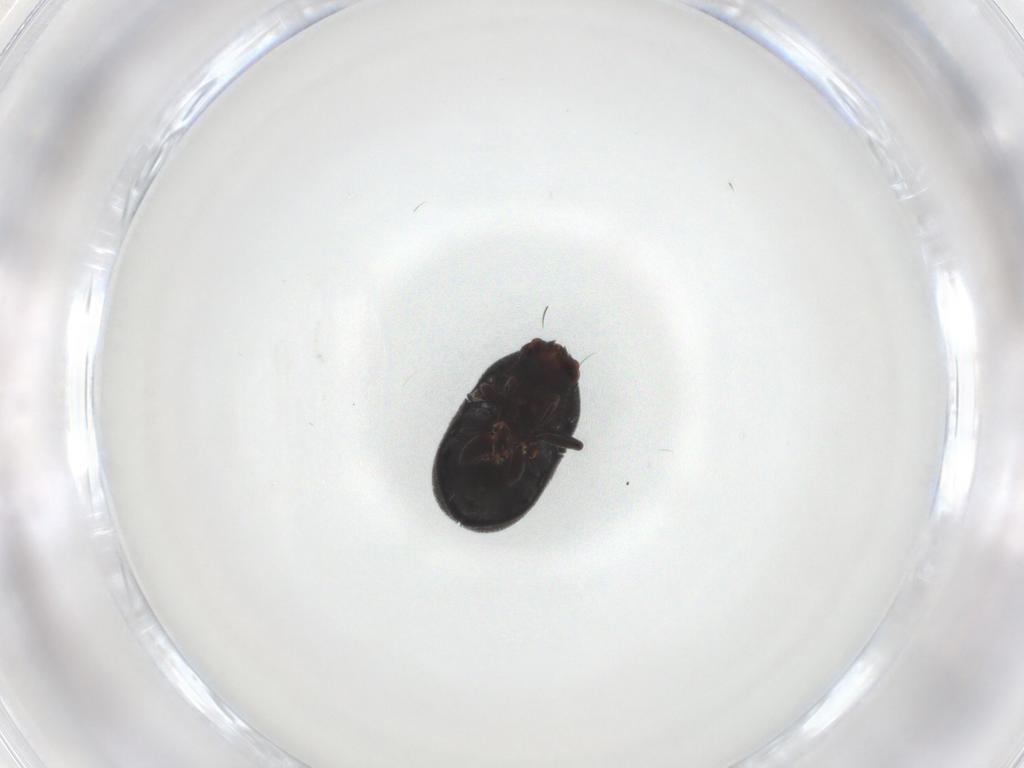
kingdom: Animalia
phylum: Arthropoda
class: Insecta
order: Coleoptera
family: Anthribidae
